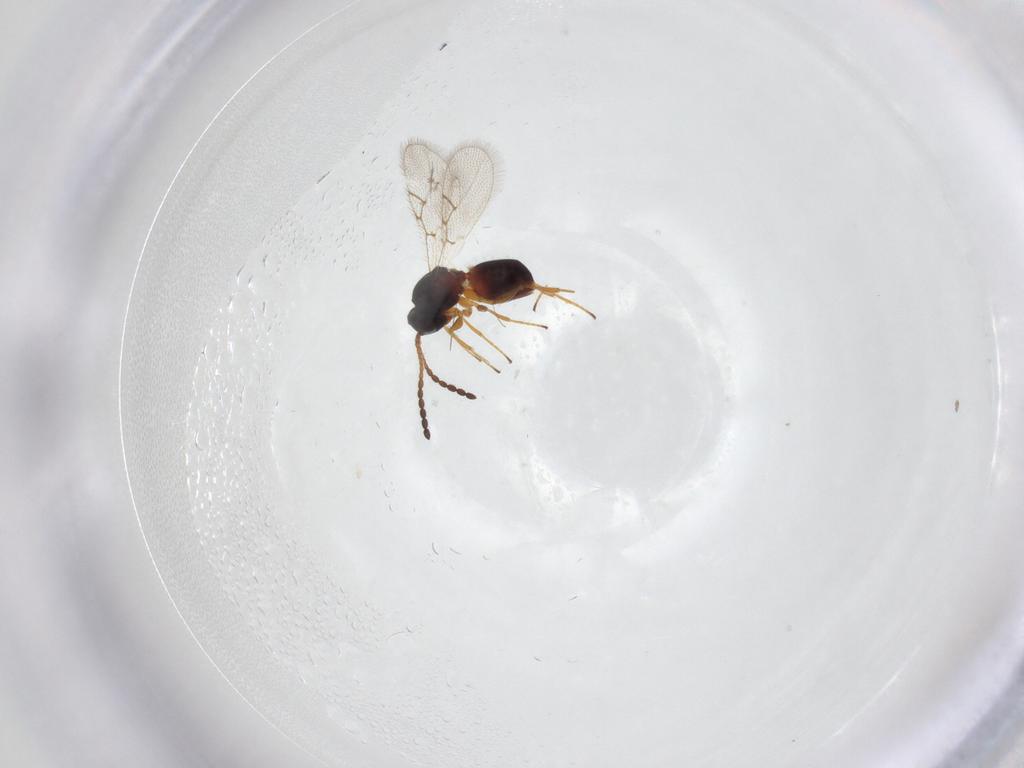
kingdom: Animalia
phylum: Arthropoda
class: Insecta
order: Hymenoptera
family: Figitidae
